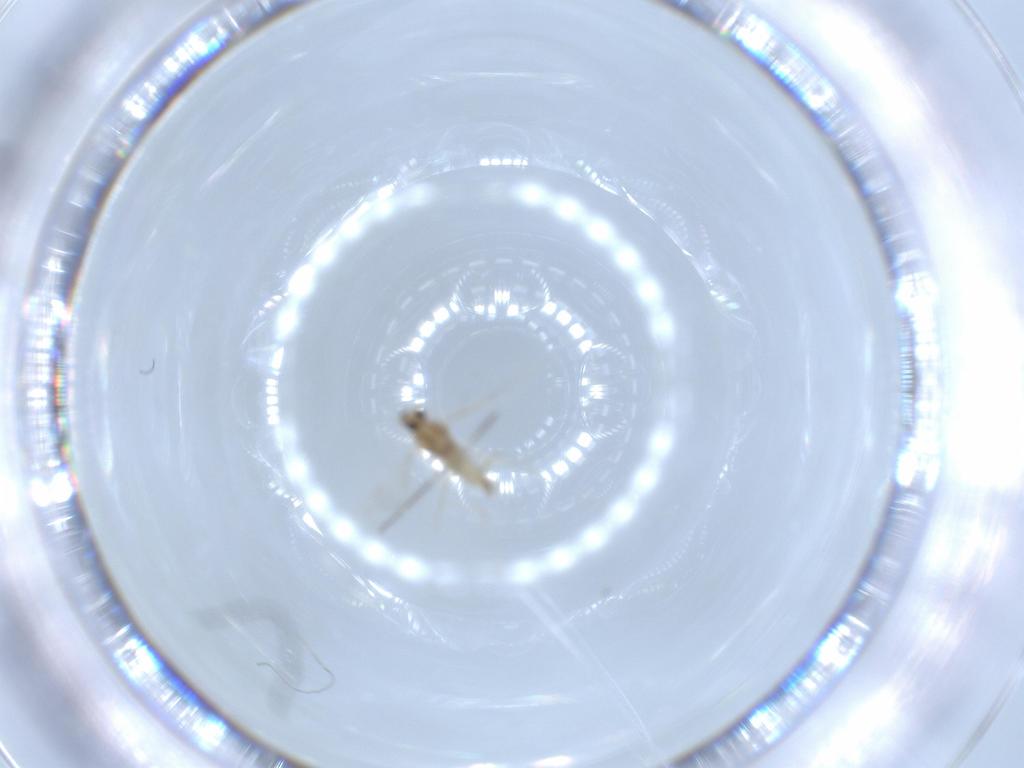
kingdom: Animalia
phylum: Arthropoda
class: Insecta
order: Diptera
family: Cecidomyiidae
